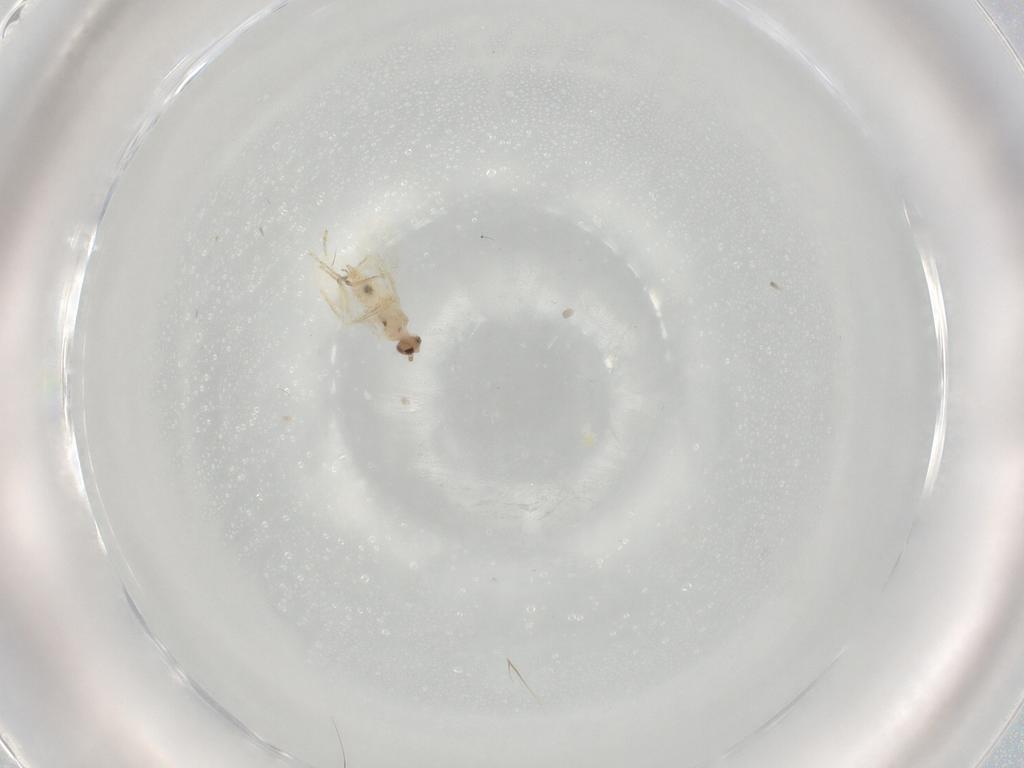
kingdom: Animalia
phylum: Arthropoda
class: Insecta
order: Diptera
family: Cecidomyiidae
